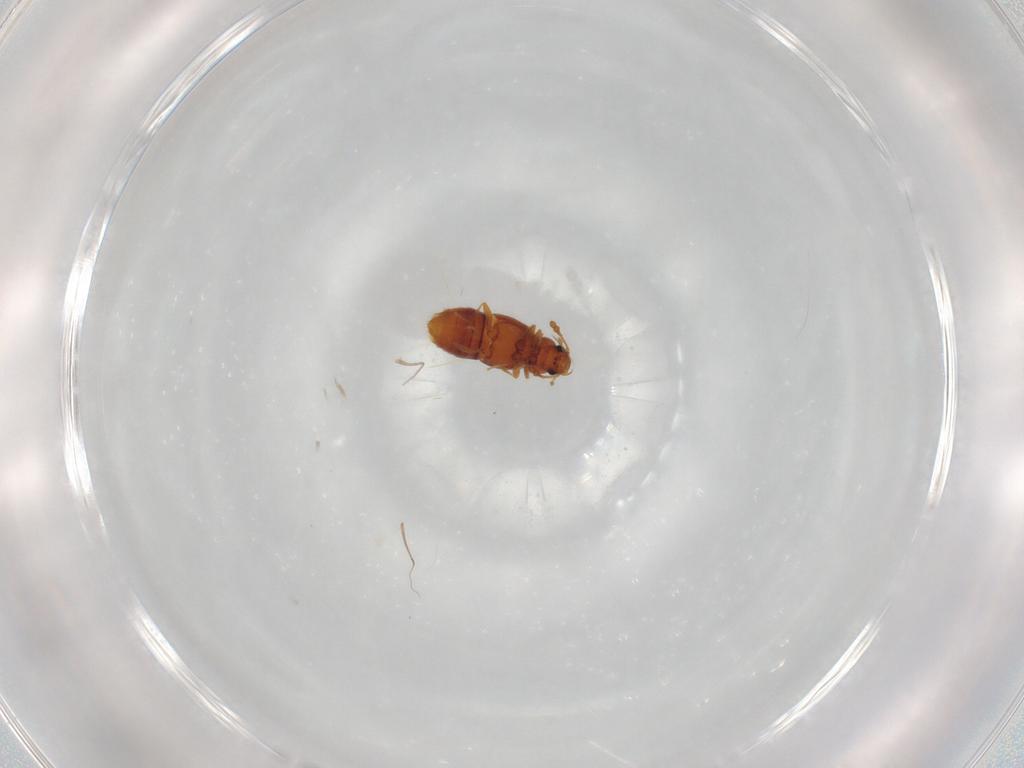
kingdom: Animalia
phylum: Arthropoda
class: Insecta
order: Coleoptera
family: Staphylinidae
